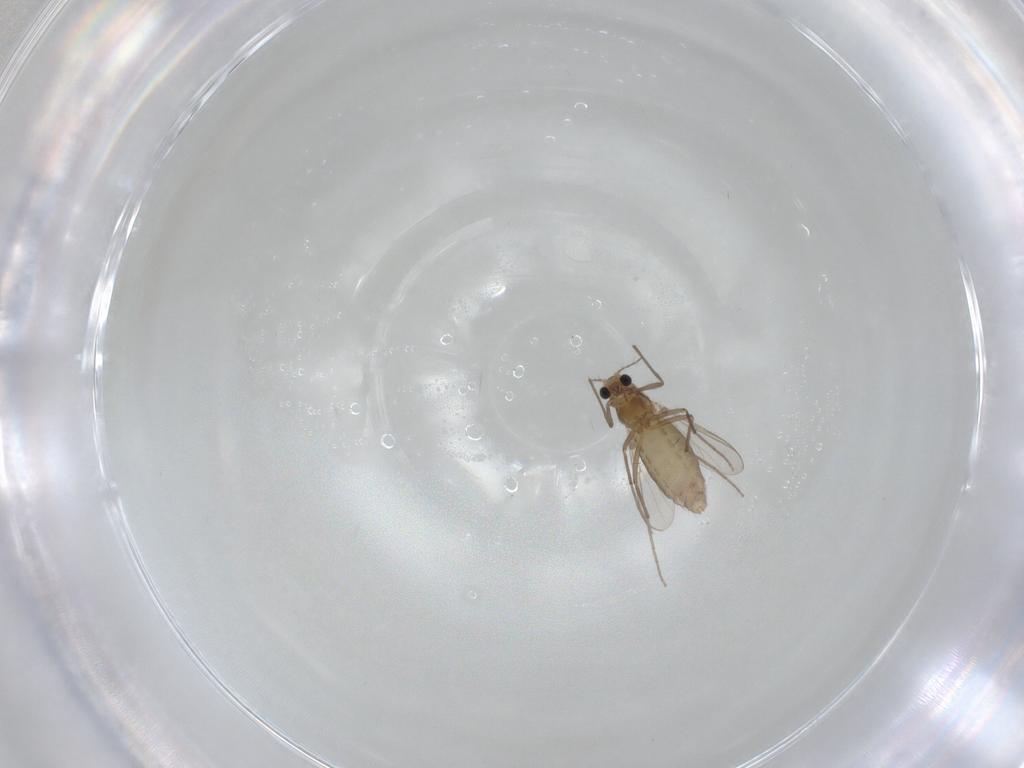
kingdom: Animalia
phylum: Arthropoda
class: Insecta
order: Diptera
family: Chironomidae
